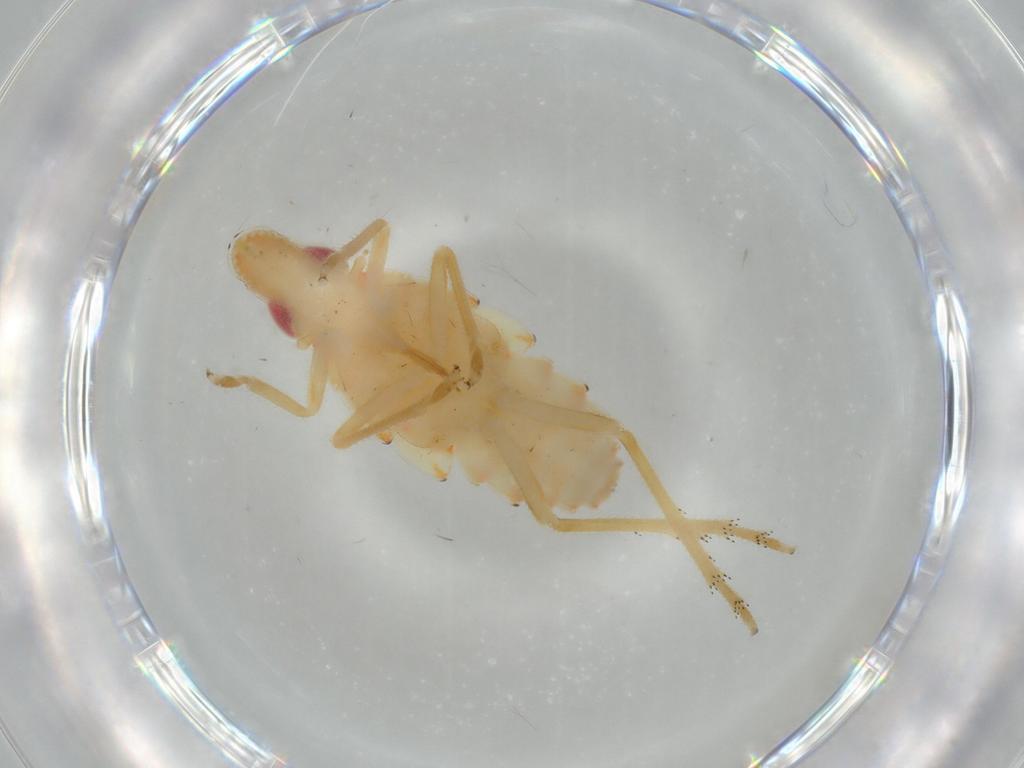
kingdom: Animalia
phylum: Arthropoda
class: Insecta
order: Hemiptera
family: Tropiduchidae
